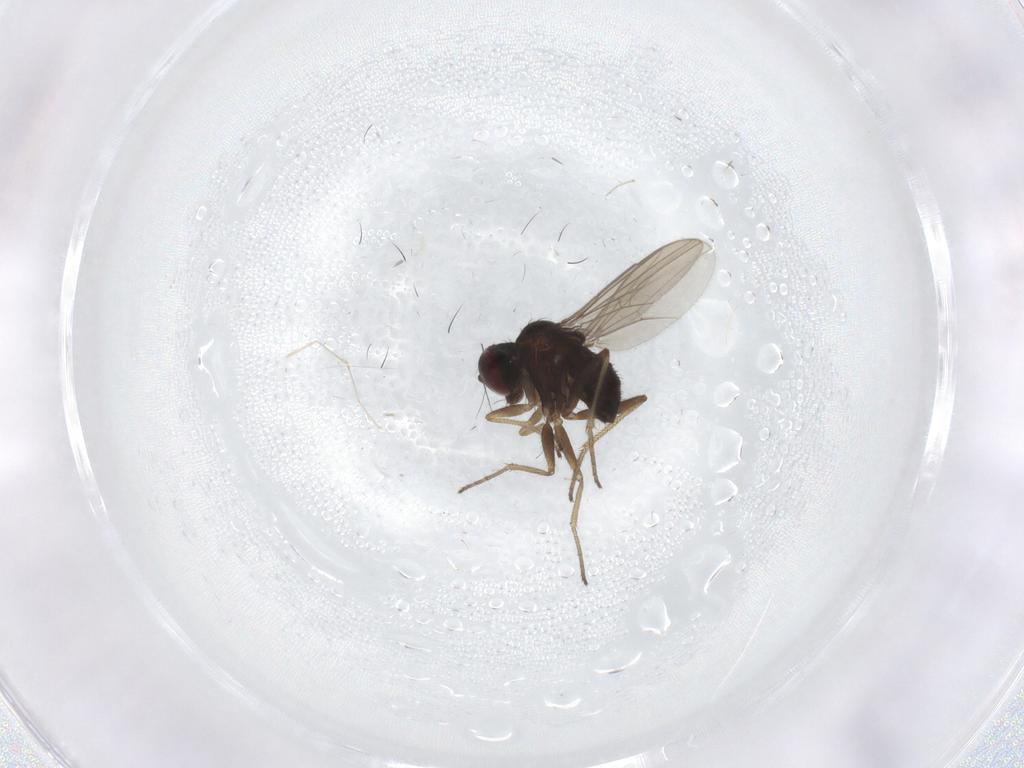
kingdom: Animalia
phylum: Arthropoda
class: Insecta
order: Diptera
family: Dolichopodidae
